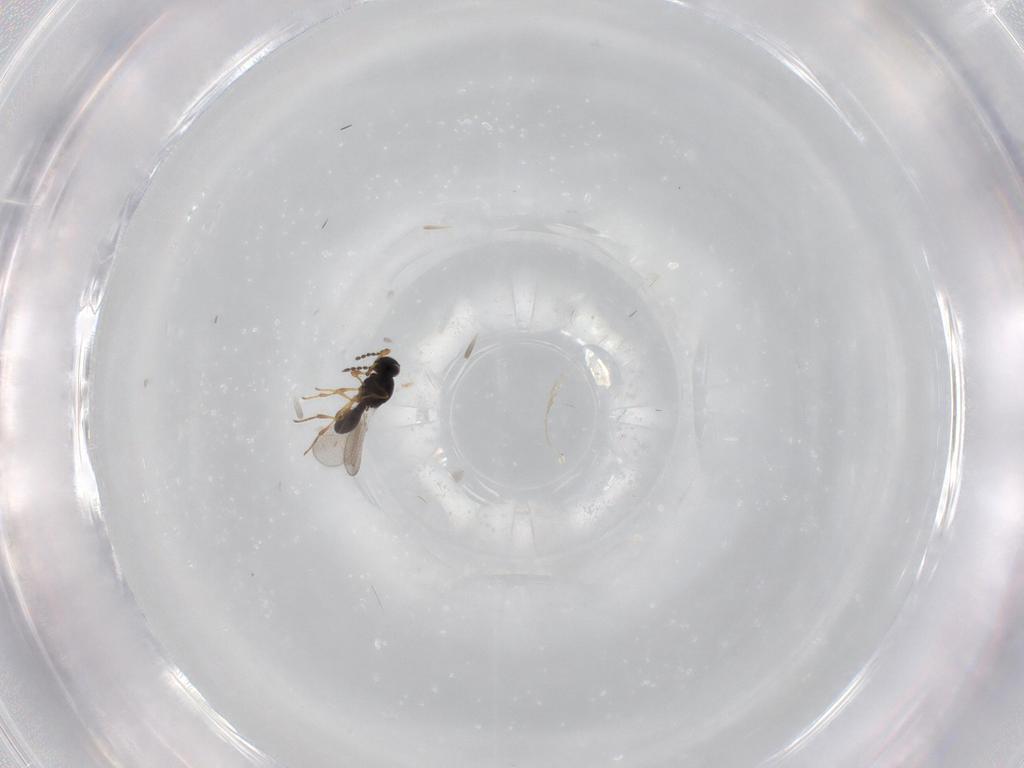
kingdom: Animalia
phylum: Arthropoda
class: Insecta
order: Hymenoptera
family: Platygastridae
